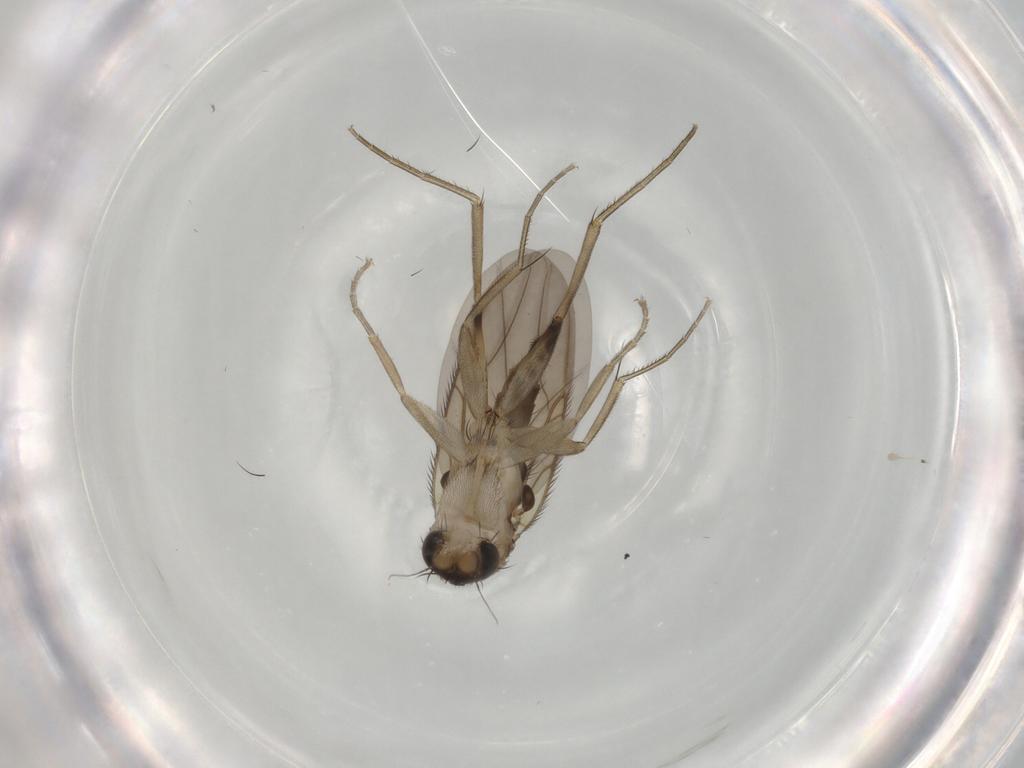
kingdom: Animalia
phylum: Arthropoda
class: Insecta
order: Diptera
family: Phoridae
